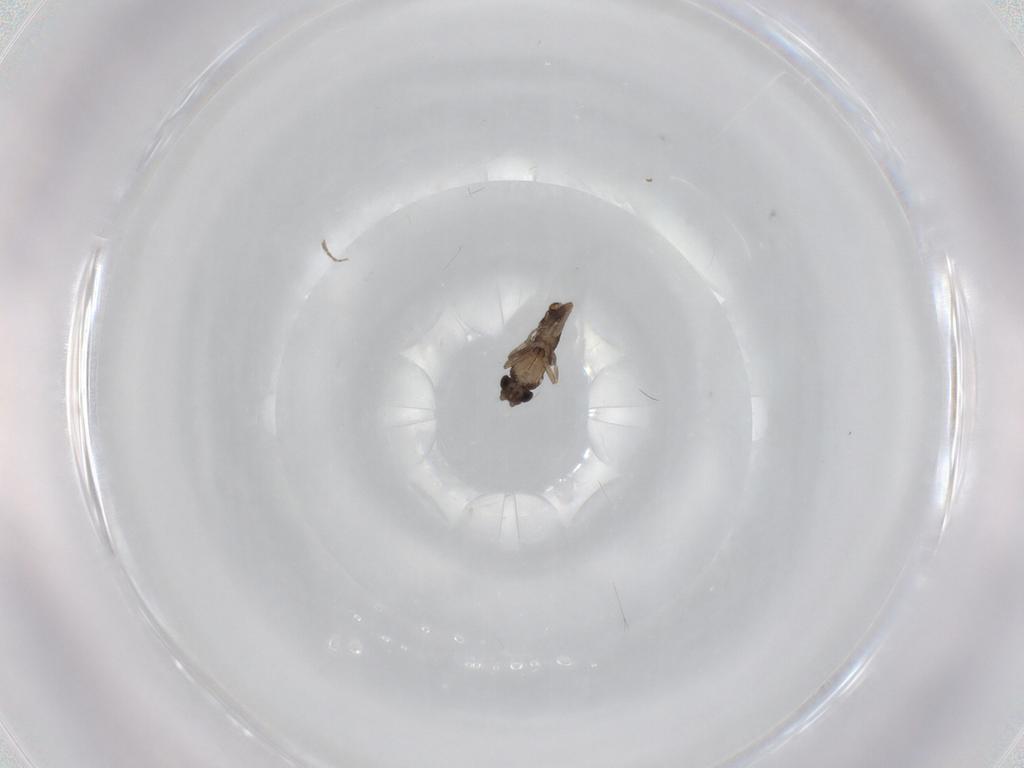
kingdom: Animalia
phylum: Arthropoda
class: Insecta
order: Diptera
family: Phoridae
